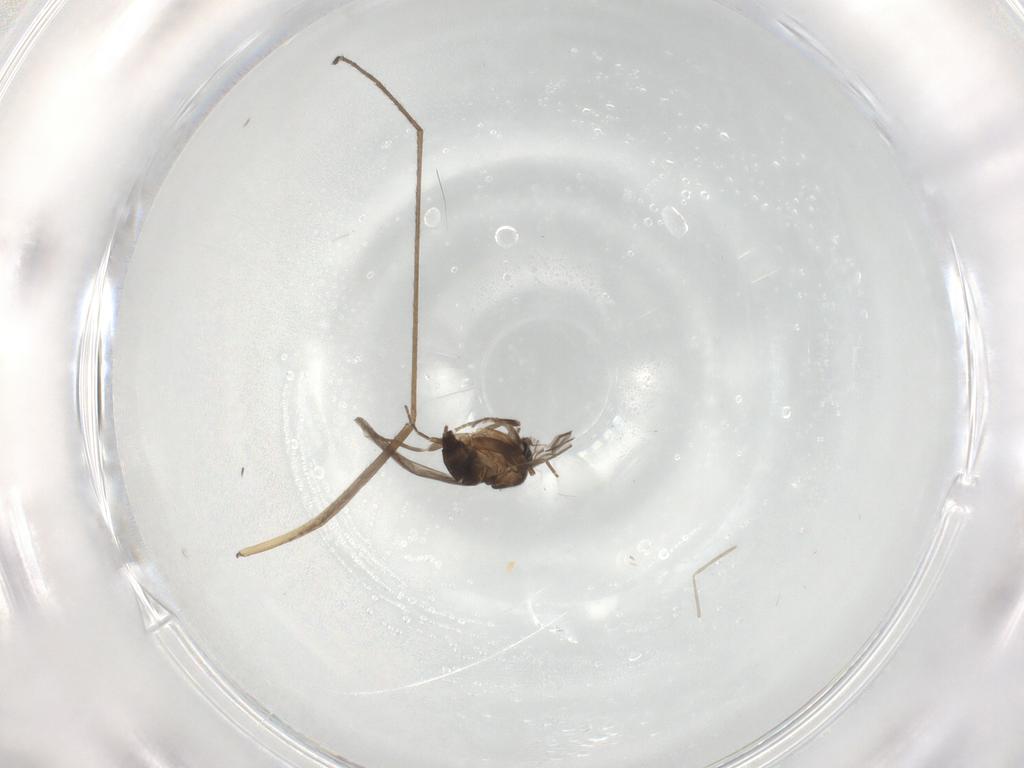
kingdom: Animalia
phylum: Arthropoda
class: Insecta
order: Diptera
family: Limoniidae
